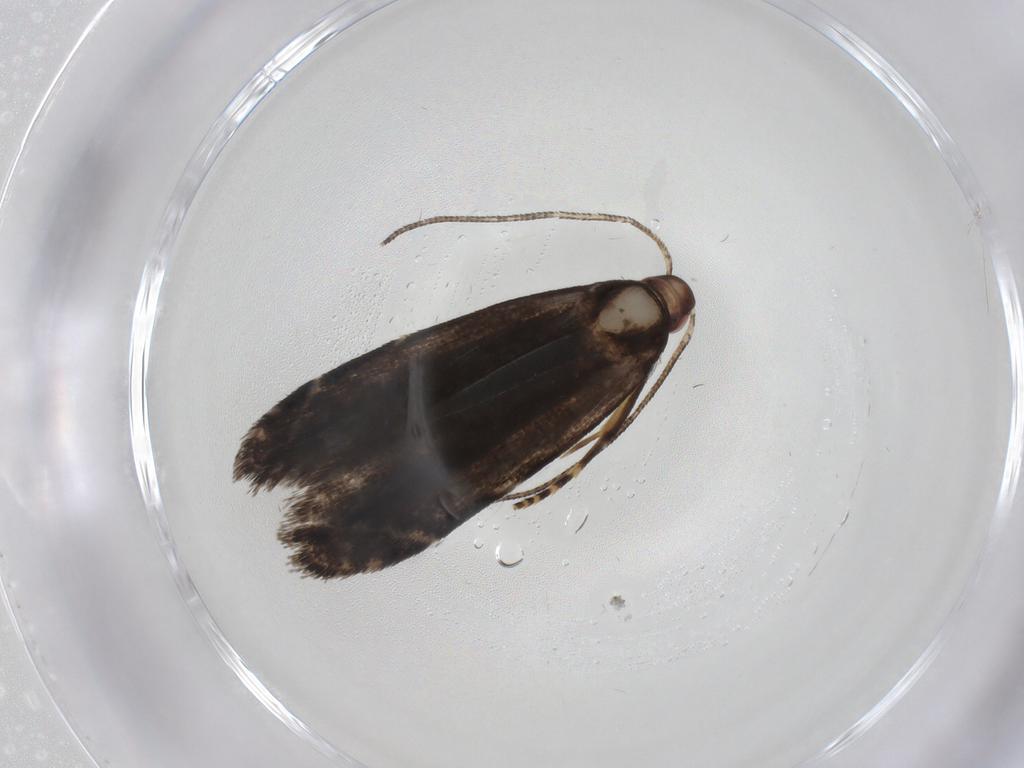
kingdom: Animalia
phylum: Arthropoda
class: Insecta
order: Lepidoptera
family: Gelechiidae
